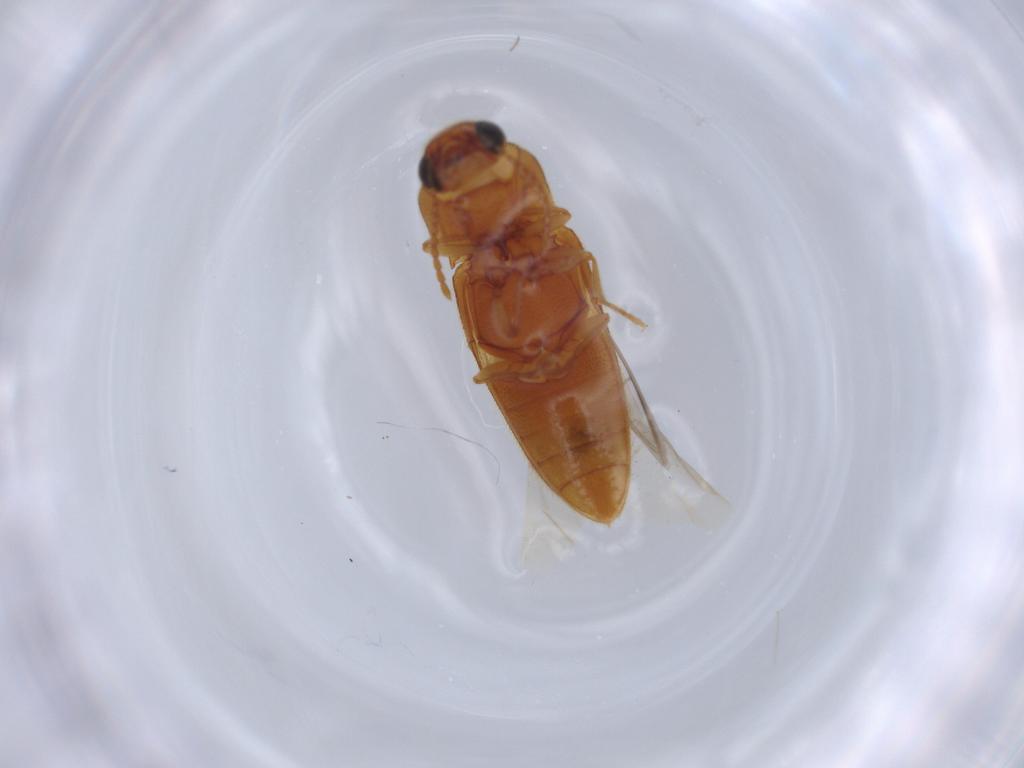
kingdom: Animalia
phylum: Arthropoda
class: Insecta
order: Coleoptera
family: Elateridae
